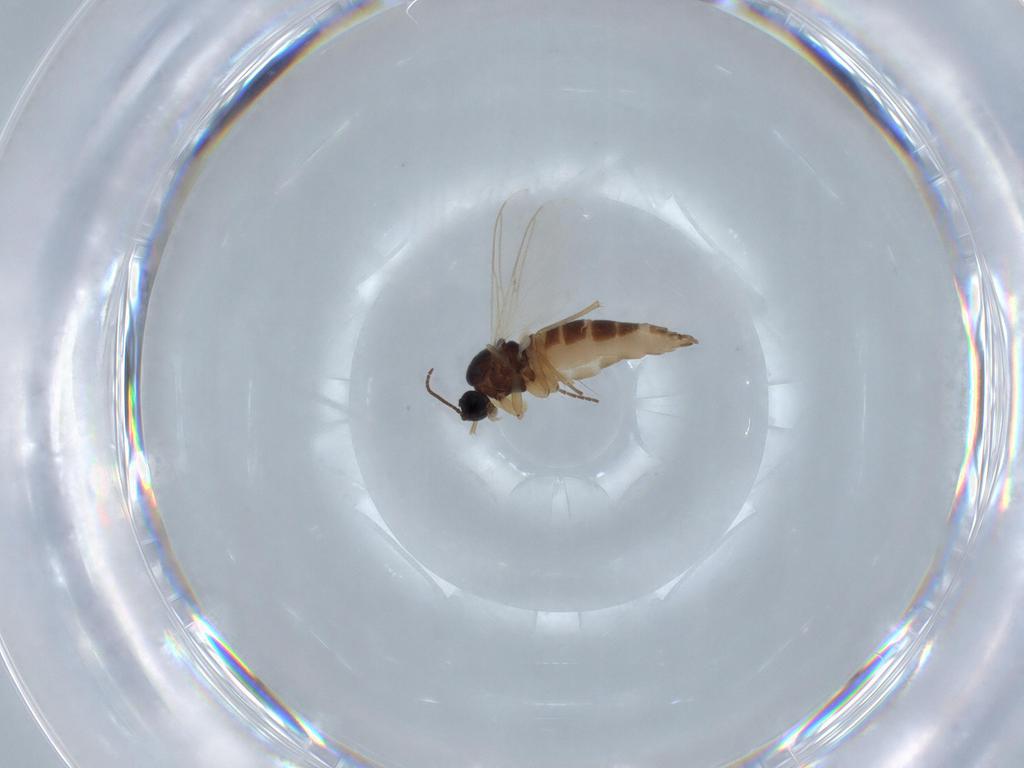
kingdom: Animalia
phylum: Arthropoda
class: Insecta
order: Diptera
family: Sciaridae
